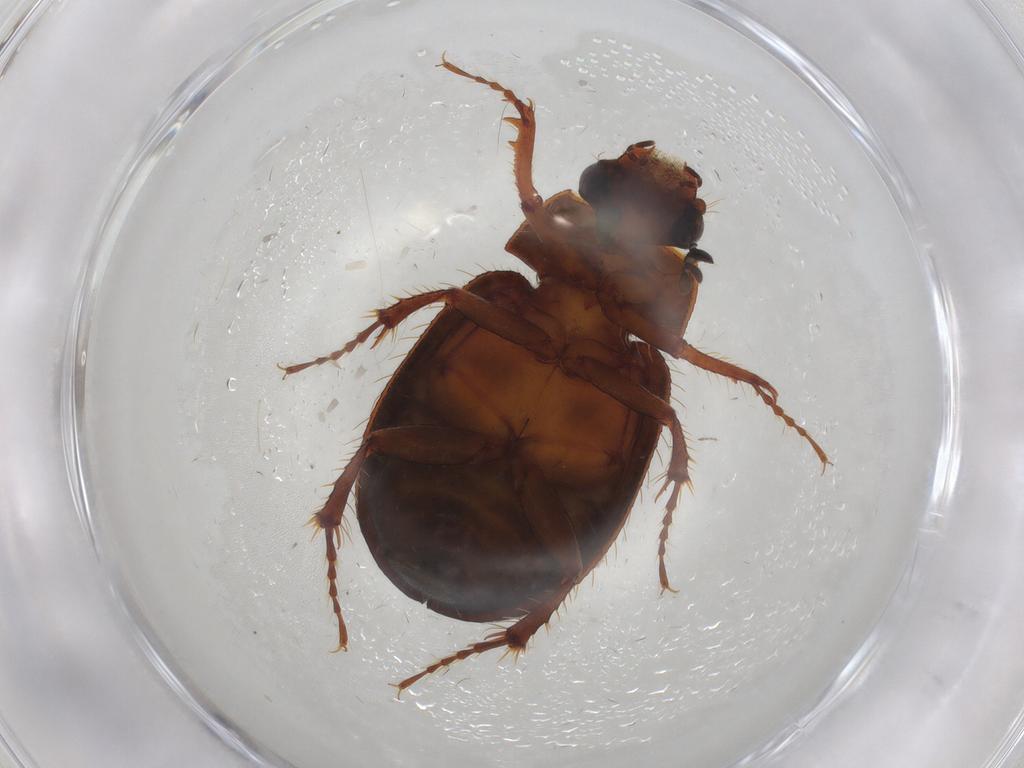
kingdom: Animalia
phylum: Arthropoda
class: Insecta
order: Coleoptera
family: Hybosoridae
